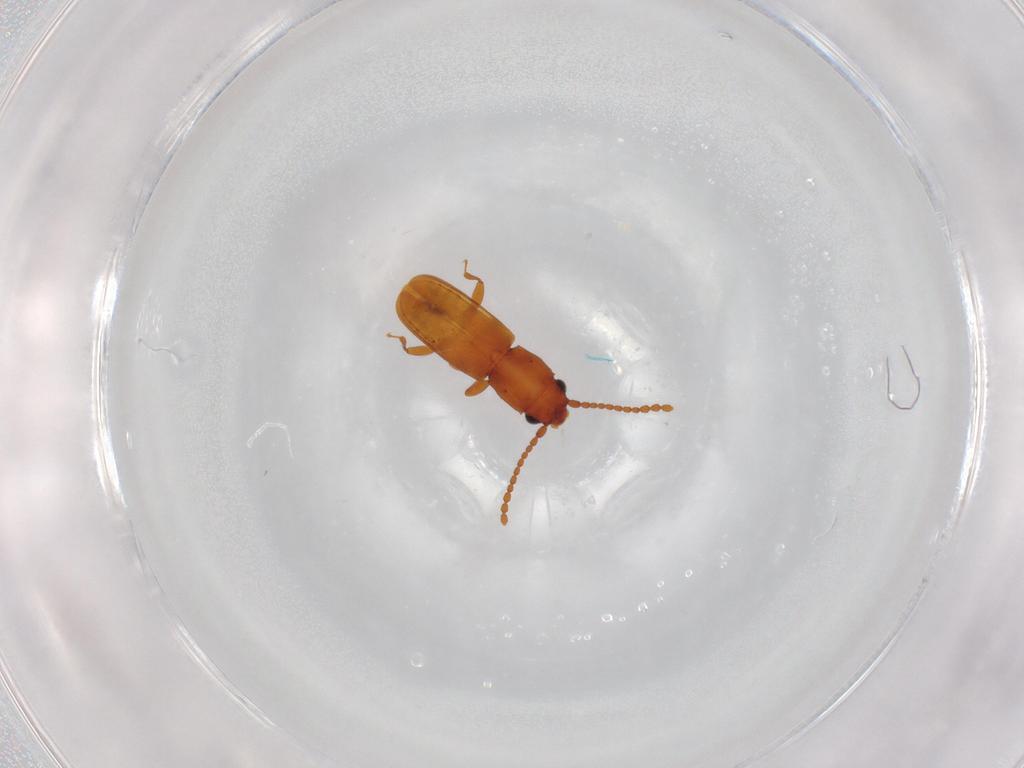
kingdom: Animalia
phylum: Arthropoda
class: Insecta
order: Coleoptera
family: Laemophloeidae
